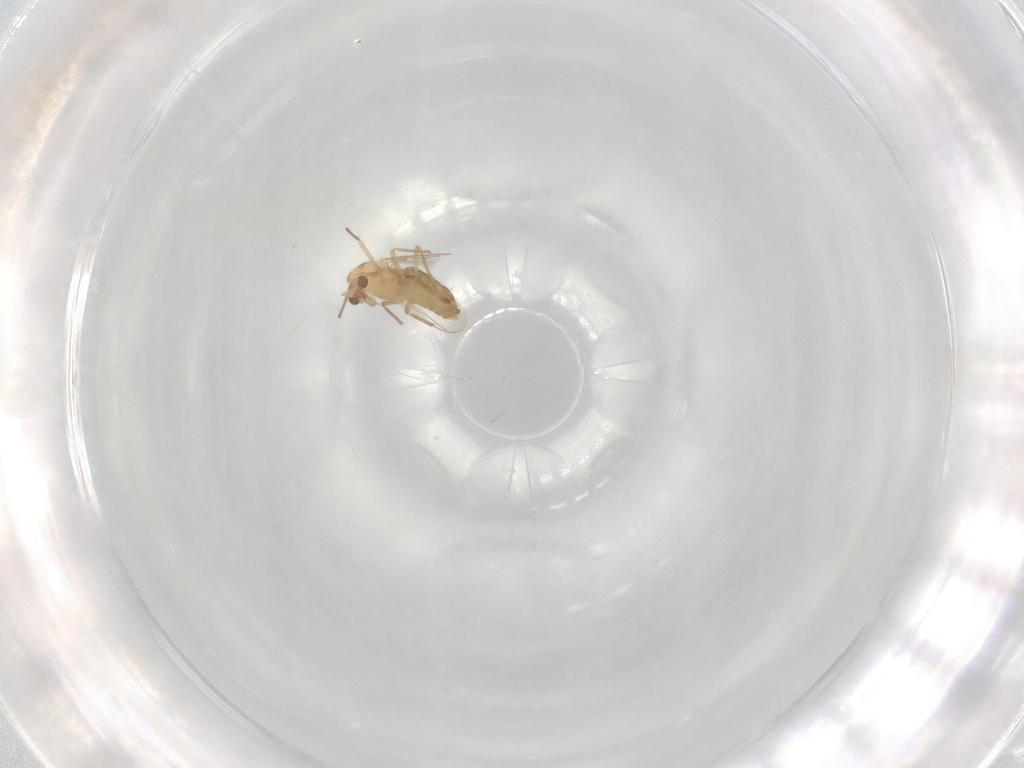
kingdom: Animalia
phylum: Arthropoda
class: Insecta
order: Diptera
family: Chironomidae
